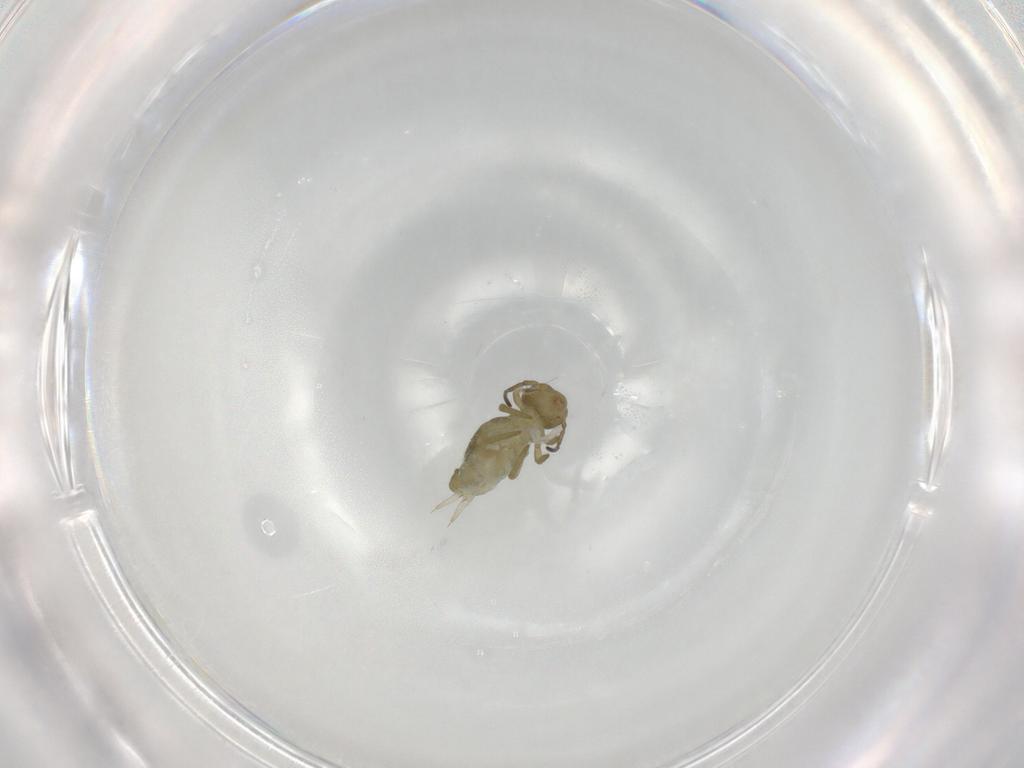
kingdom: Animalia
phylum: Arthropoda
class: Collembola
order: Symphypleona
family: Sminthuridae
